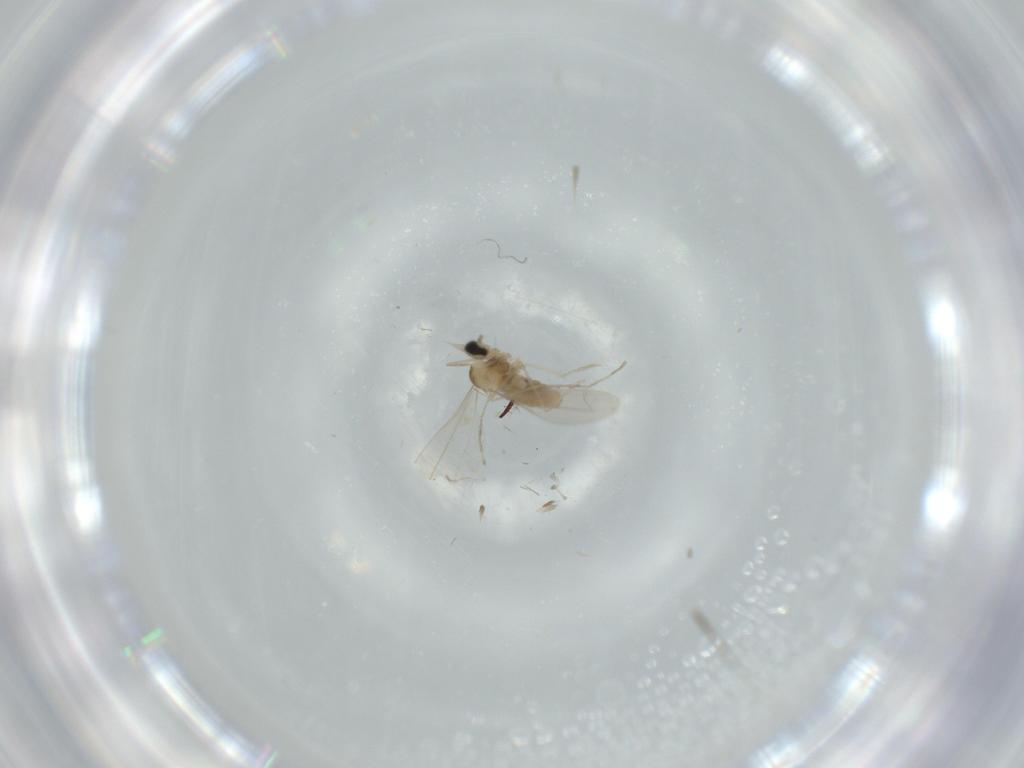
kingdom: Animalia
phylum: Arthropoda
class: Insecta
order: Diptera
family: Cecidomyiidae
